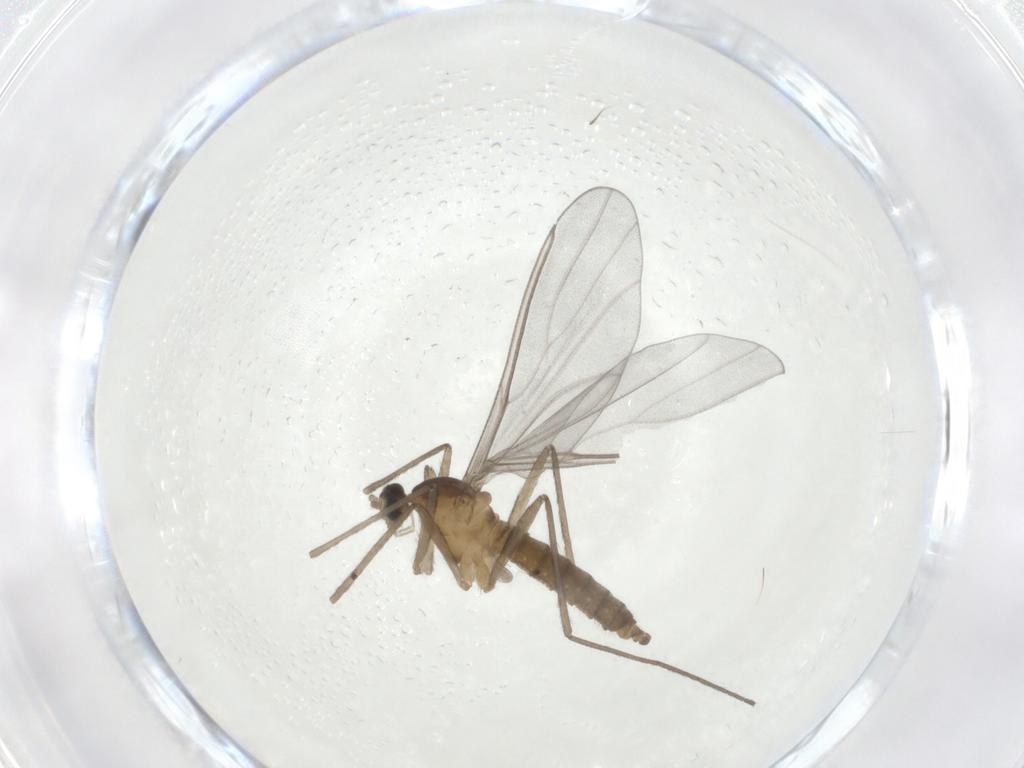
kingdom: Animalia
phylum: Arthropoda
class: Insecta
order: Diptera
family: Cecidomyiidae
